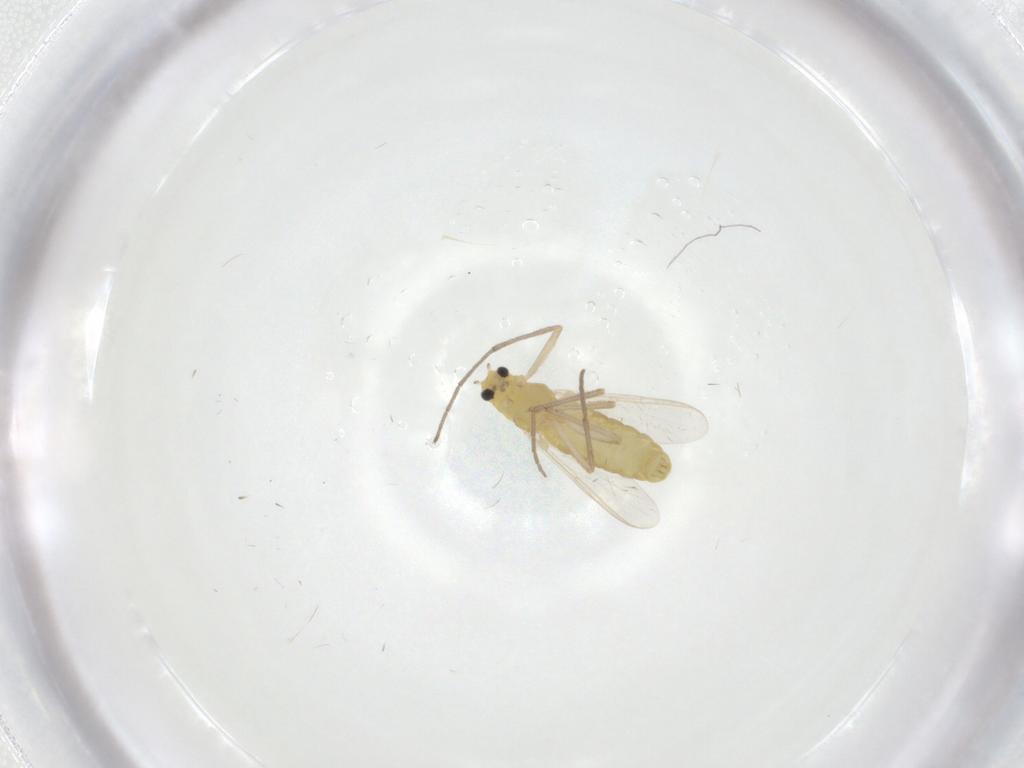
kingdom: Animalia
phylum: Arthropoda
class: Insecta
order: Diptera
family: Chironomidae
